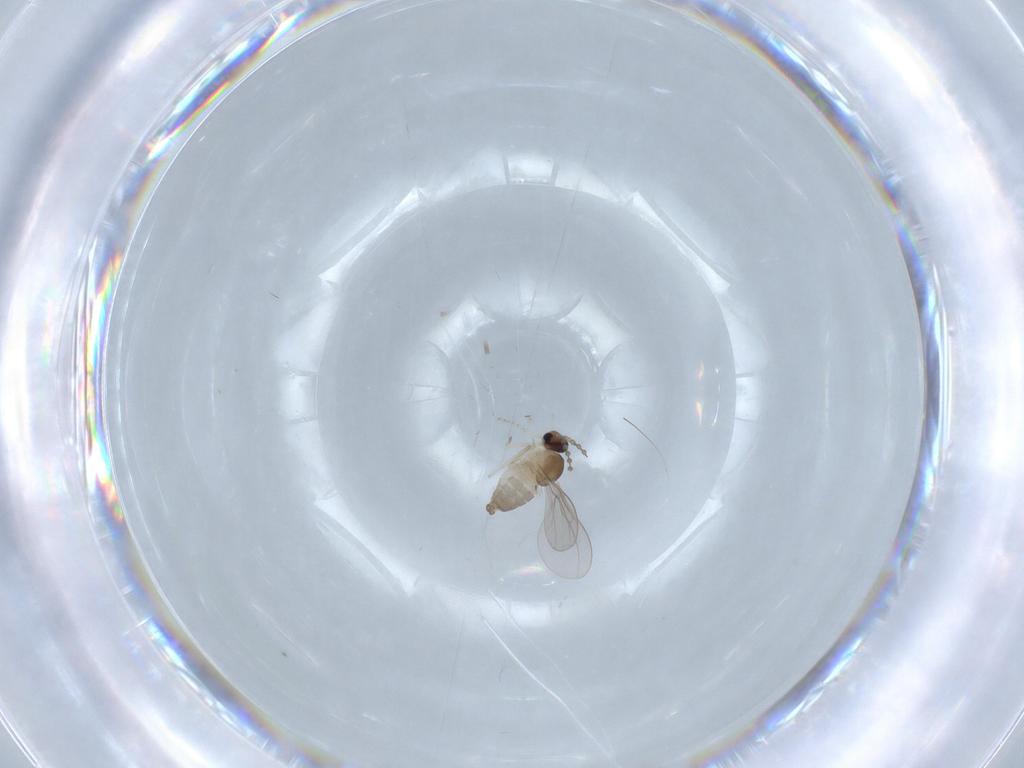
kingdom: Animalia
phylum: Arthropoda
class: Insecta
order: Diptera
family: Cecidomyiidae
